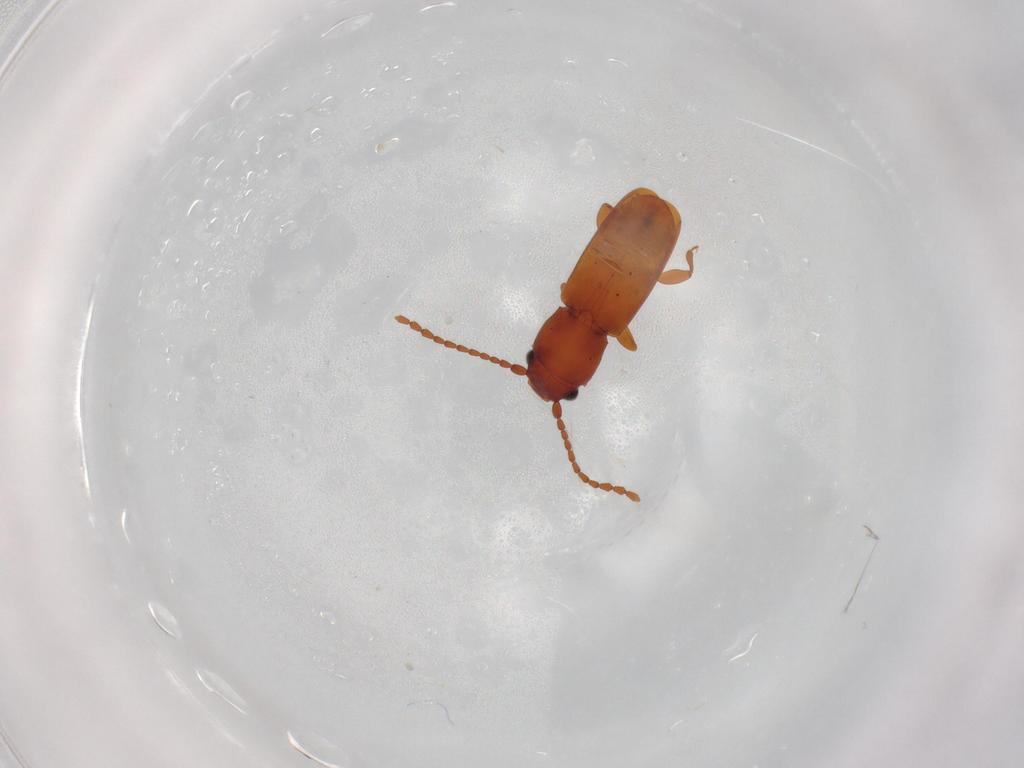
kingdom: Animalia
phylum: Arthropoda
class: Insecta
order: Coleoptera
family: Laemophloeidae
